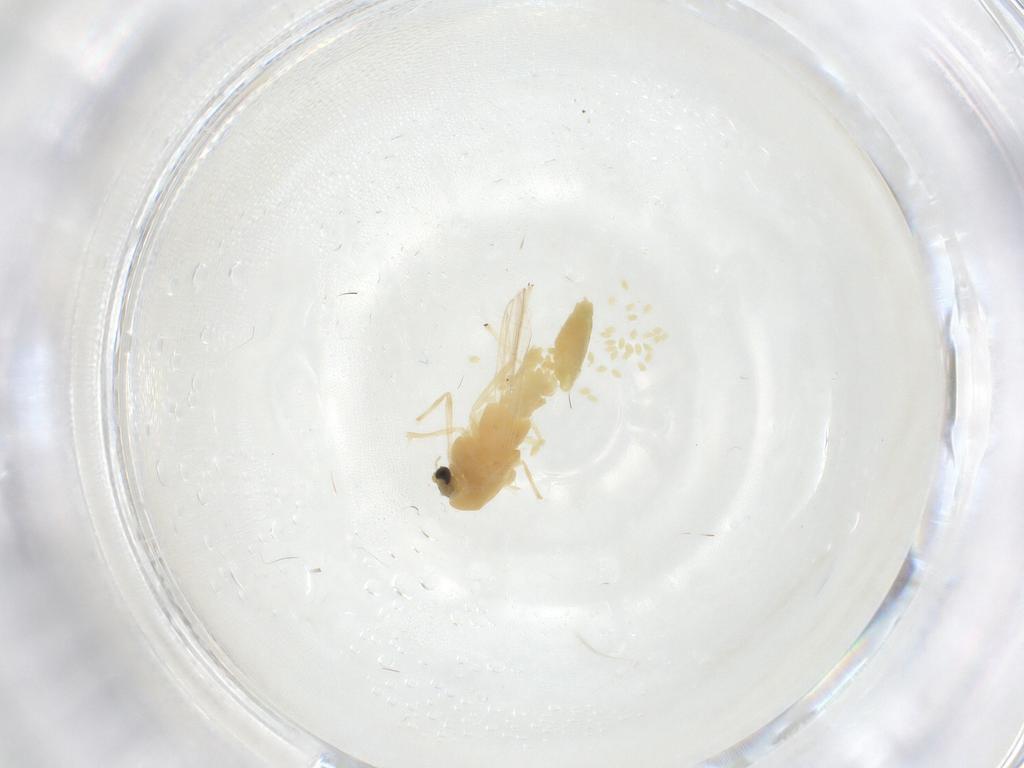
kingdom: Animalia
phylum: Arthropoda
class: Insecta
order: Diptera
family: Chironomidae
